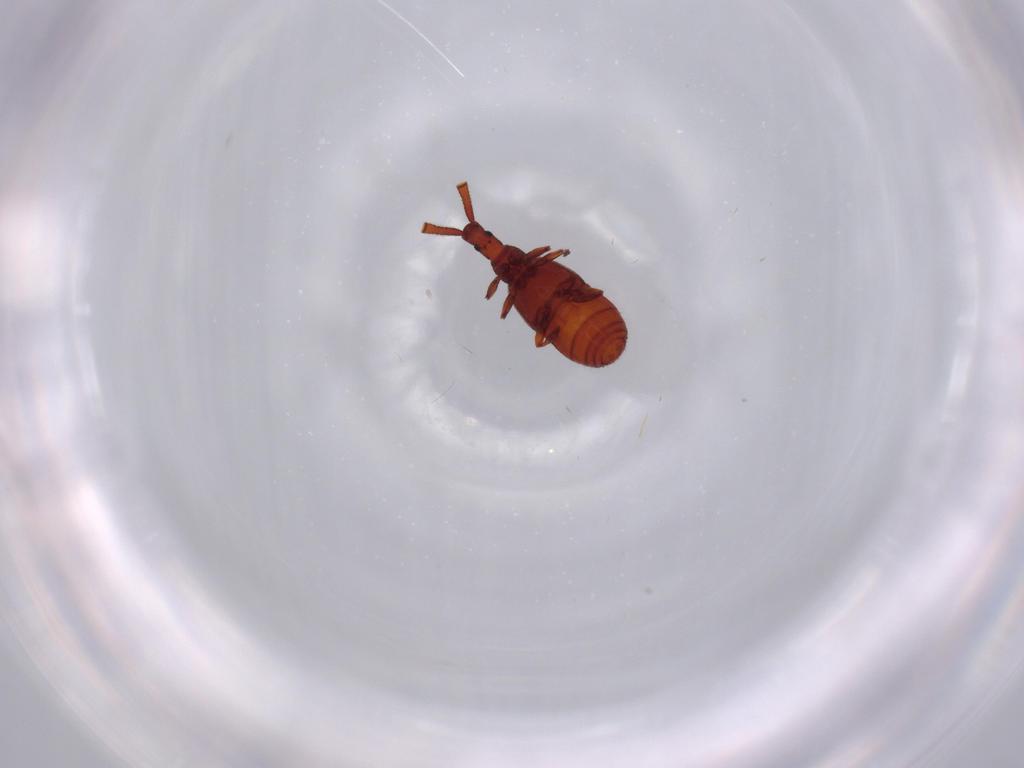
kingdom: Animalia
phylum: Arthropoda
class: Insecta
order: Coleoptera
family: Staphylinidae
